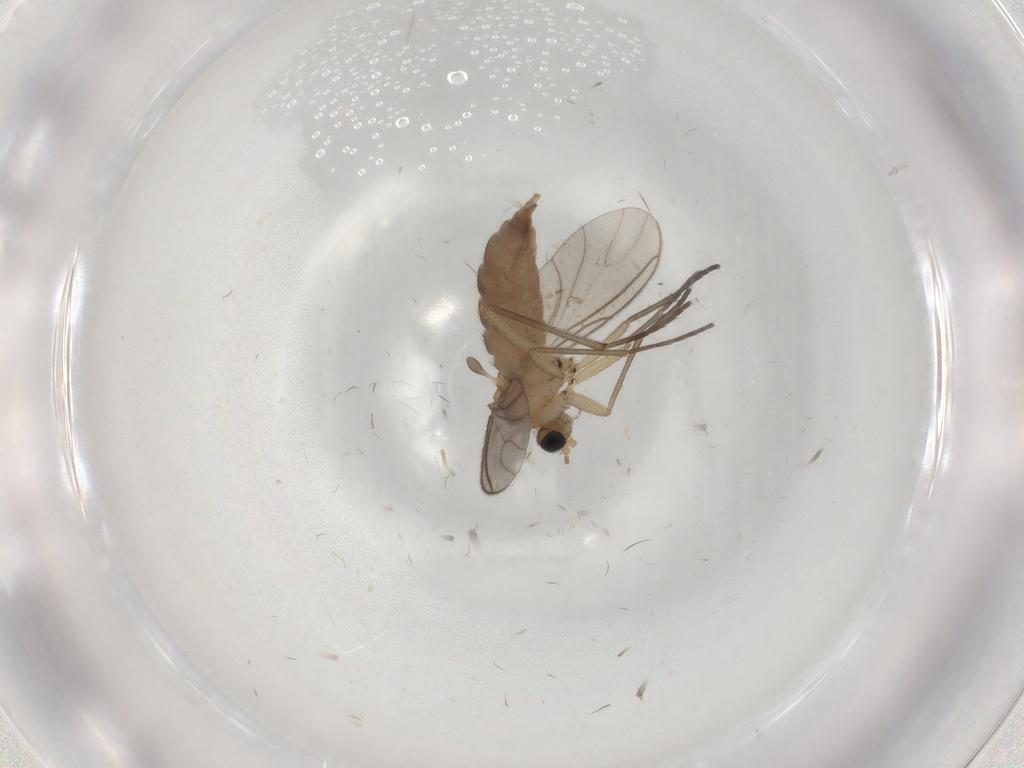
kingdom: Animalia
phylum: Arthropoda
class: Insecta
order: Diptera
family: Sciaridae
